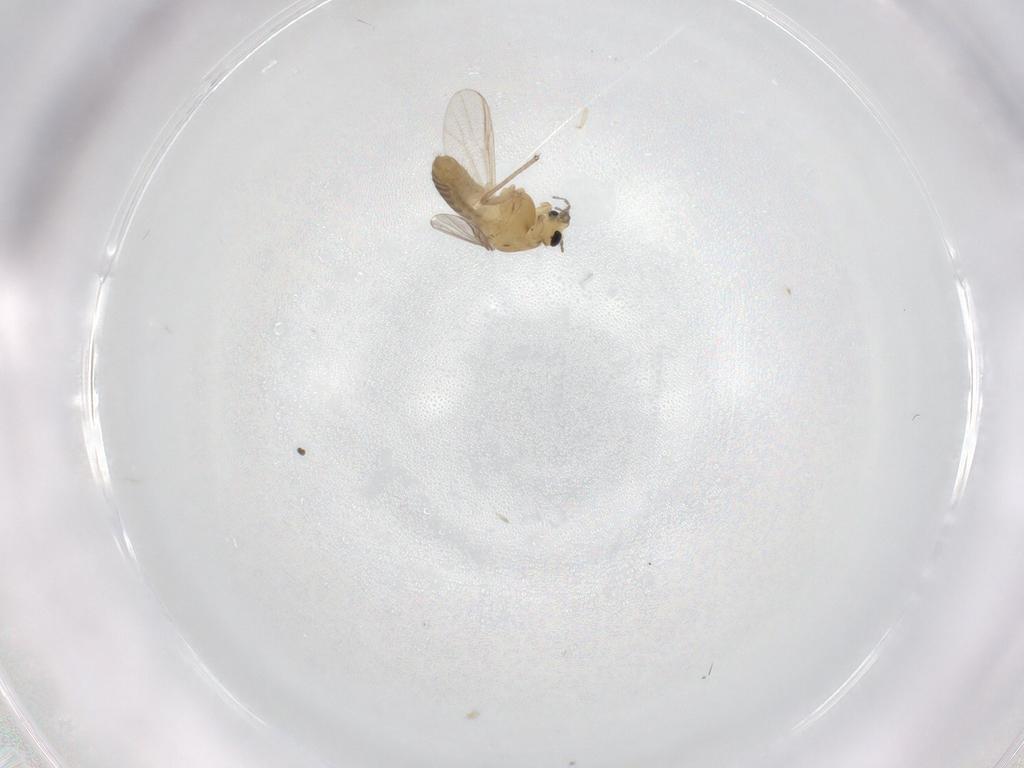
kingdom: Animalia
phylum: Arthropoda
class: Insecta
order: Diptera
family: Chironomidae
